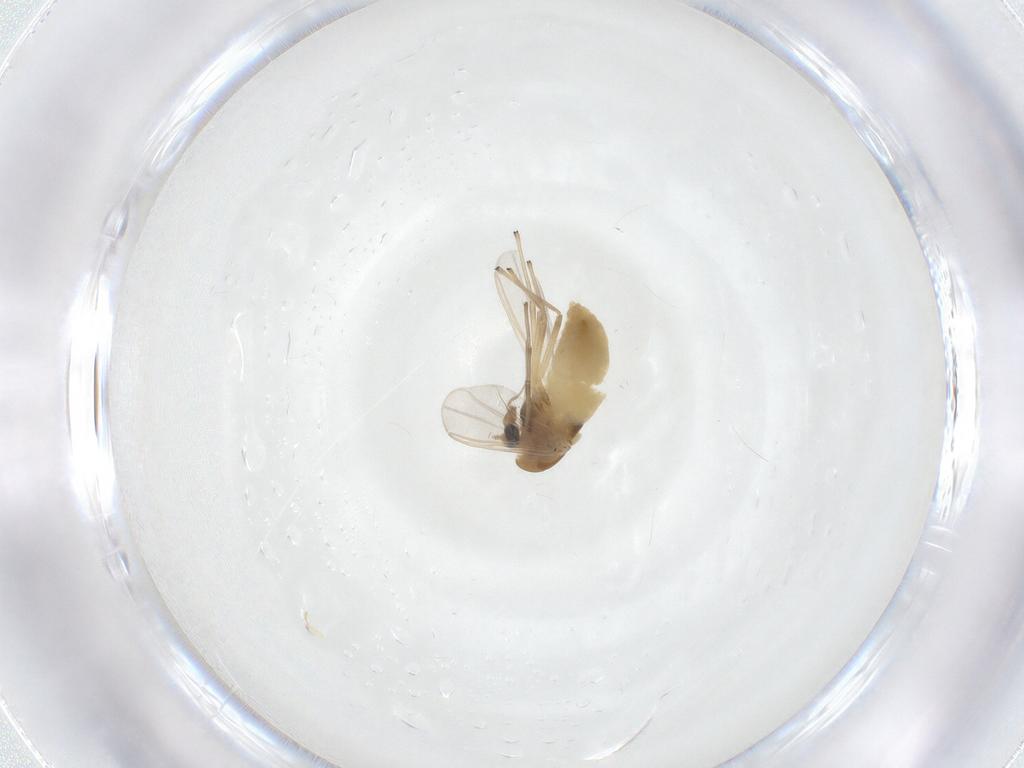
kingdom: Animalia
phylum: Arthropoda
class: Insecta
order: Diptera
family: Chironomidae
